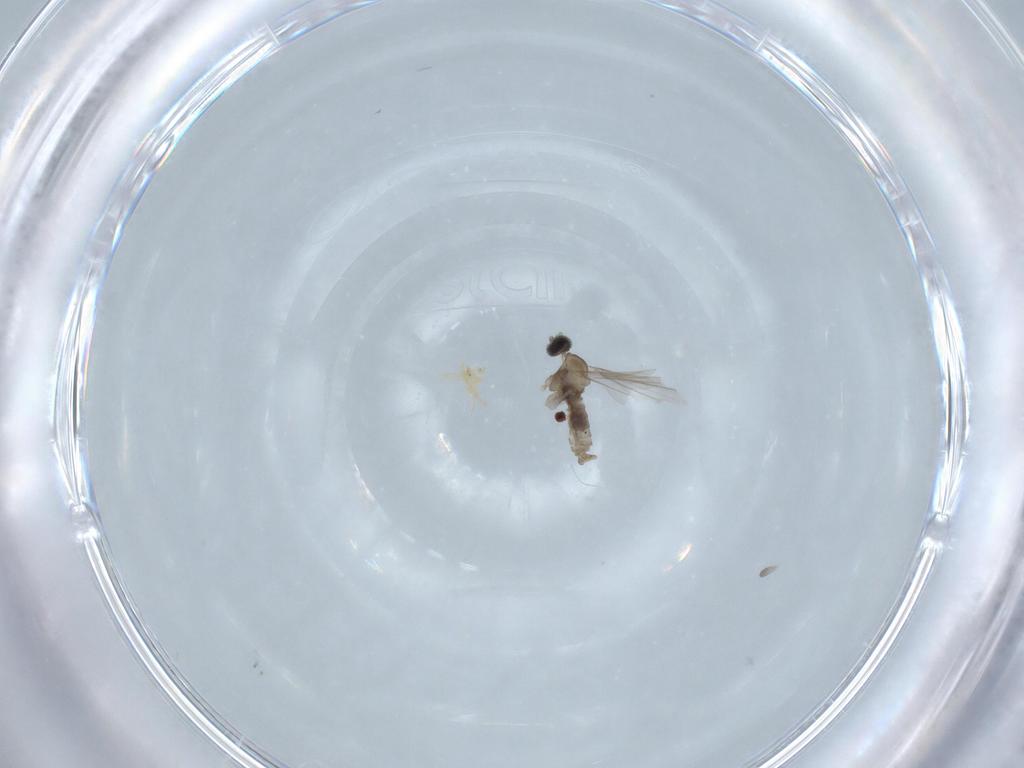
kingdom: Animalia
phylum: Arthropoda
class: Insecta
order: Diptera
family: Cecidomyiidae
